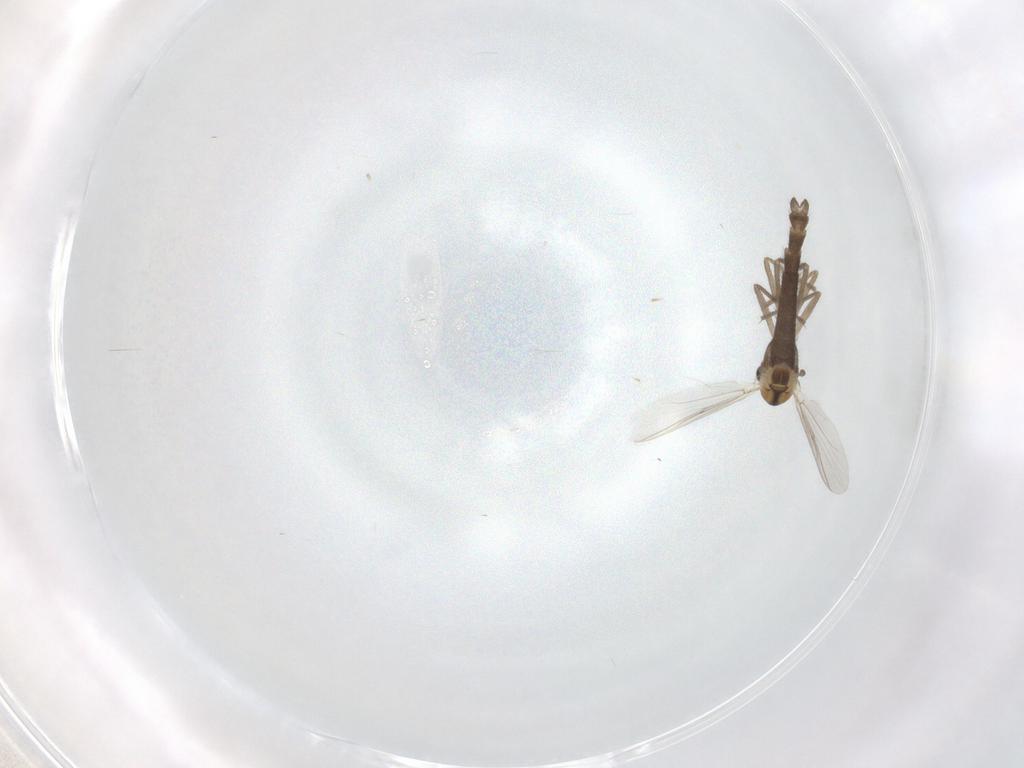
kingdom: Animalia
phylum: Arthropoda
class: Insecta
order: Diptera
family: Chironomidae
